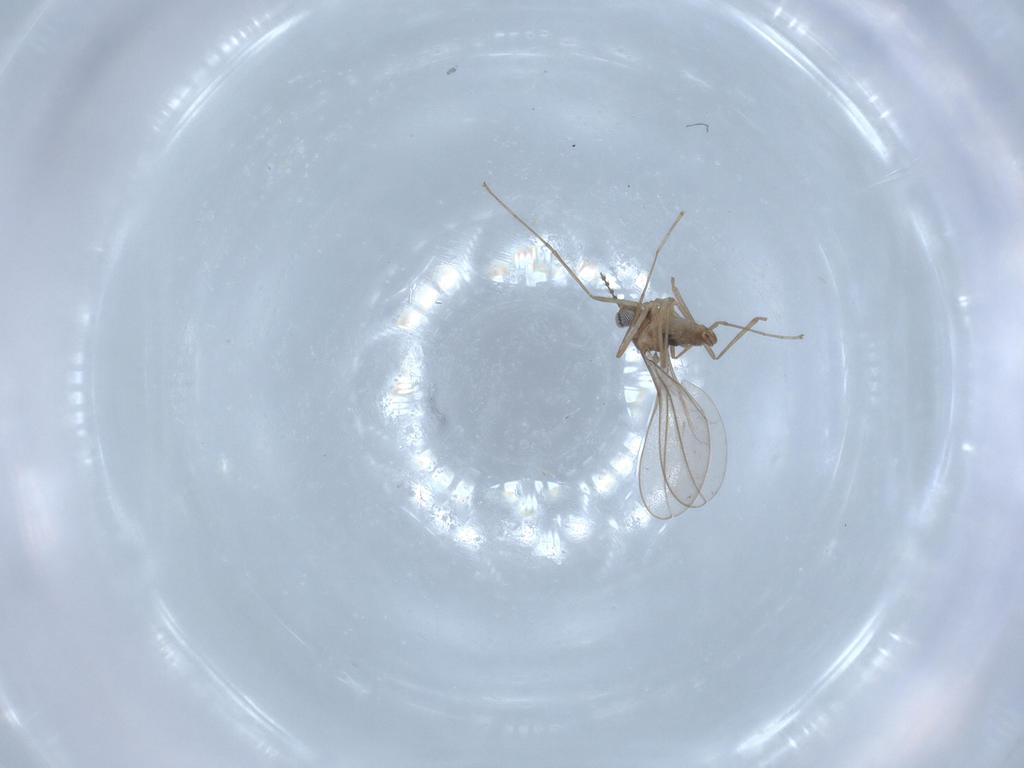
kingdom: Animalia
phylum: Arthropoda
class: Insecta
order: Diptera
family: Cecidomyiidae
